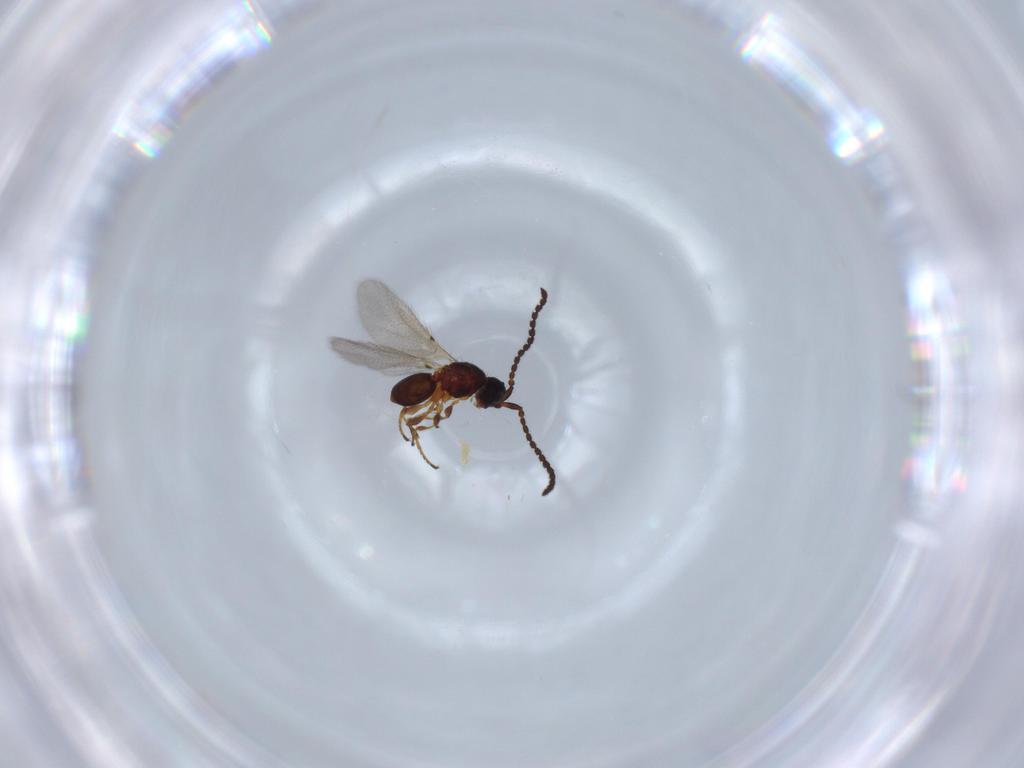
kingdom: Animalia
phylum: Arthropoda
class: Insecta
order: Hymenoptera
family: Diapriidae
